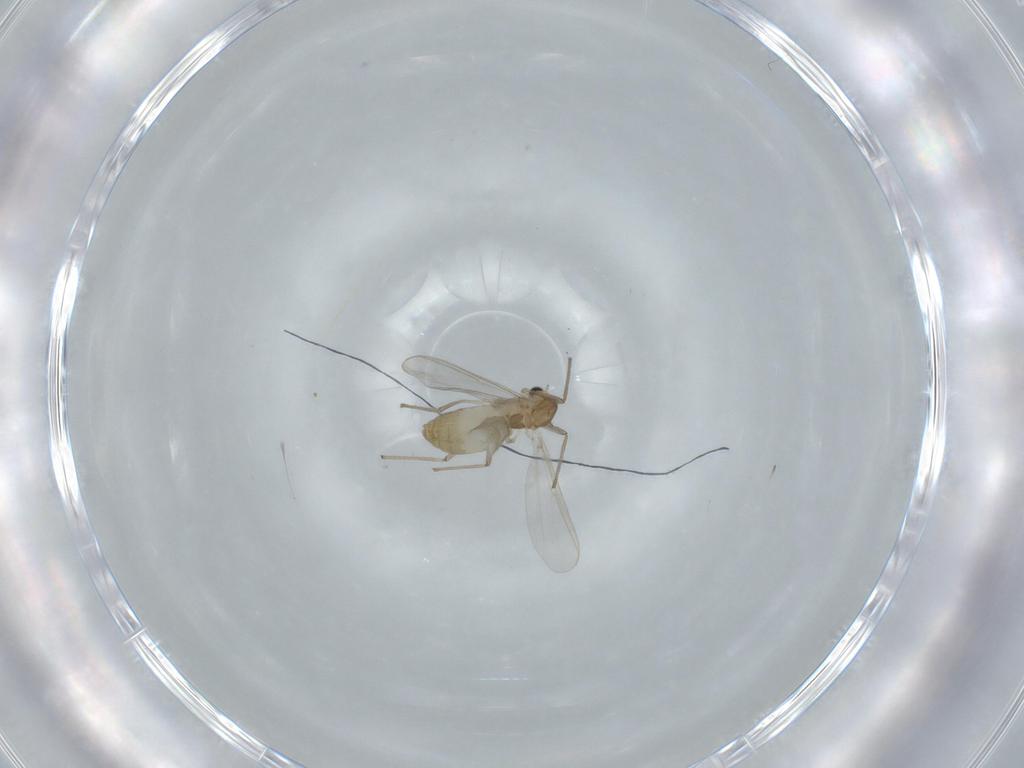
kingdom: Animalia
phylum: Arthropoda
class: Insecta
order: Diptera
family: Chironomidae
